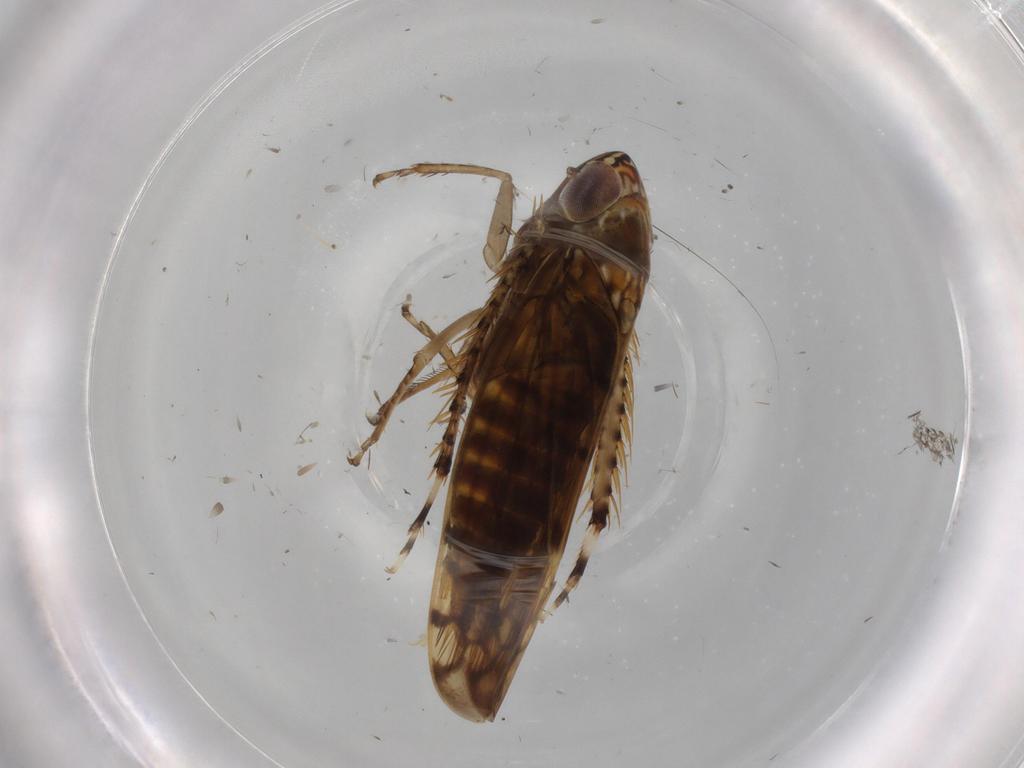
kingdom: Animalia
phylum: Arthropoda
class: Insecta
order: Hemiptera
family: Cicadellidae
